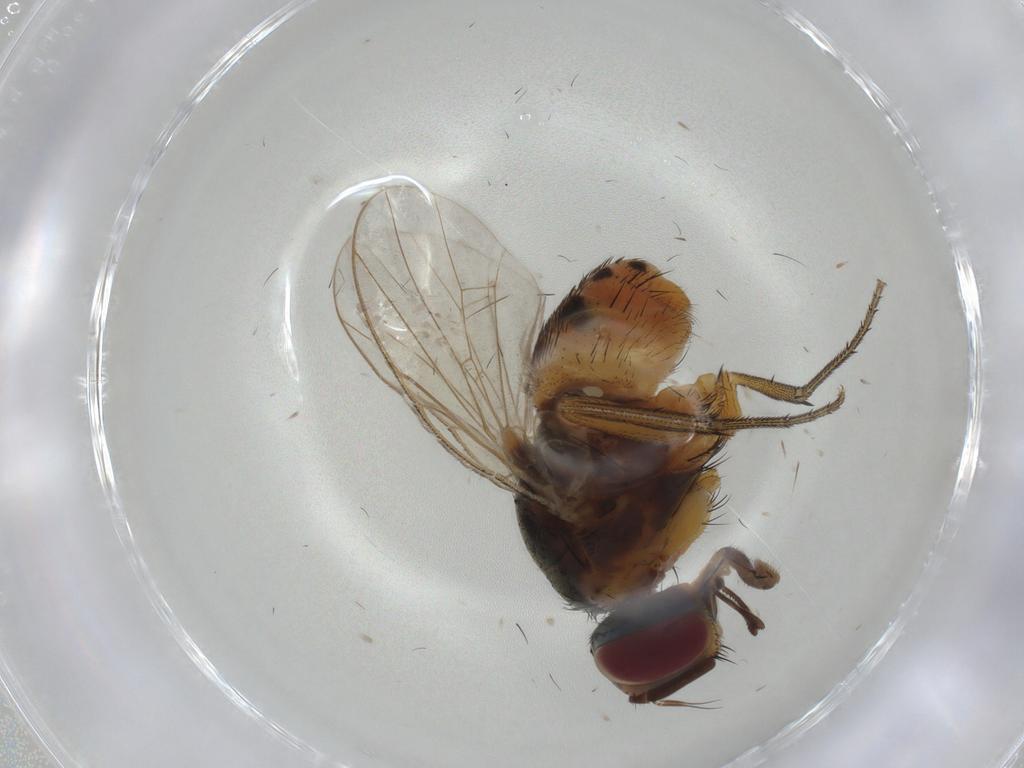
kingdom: Animalia
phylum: Arthropoda
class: Insecta
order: Diptera
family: Muscidae
